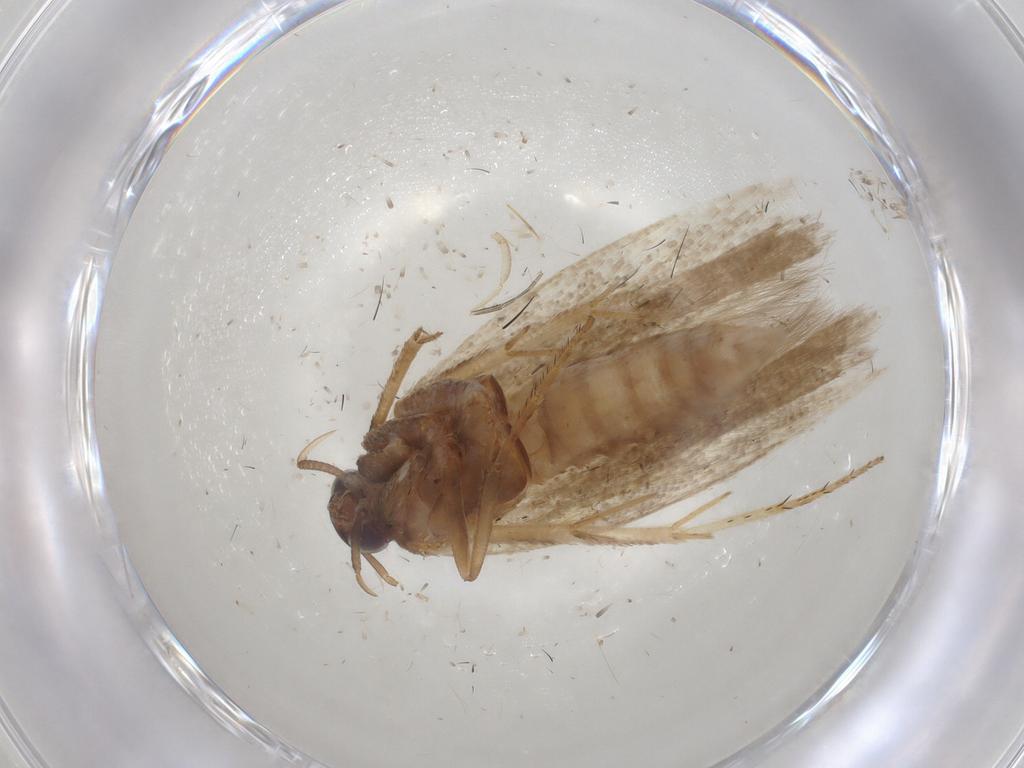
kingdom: Animalia
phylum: Arthropoda
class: Insecta
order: Lepidoptera
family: Gelechiidae
